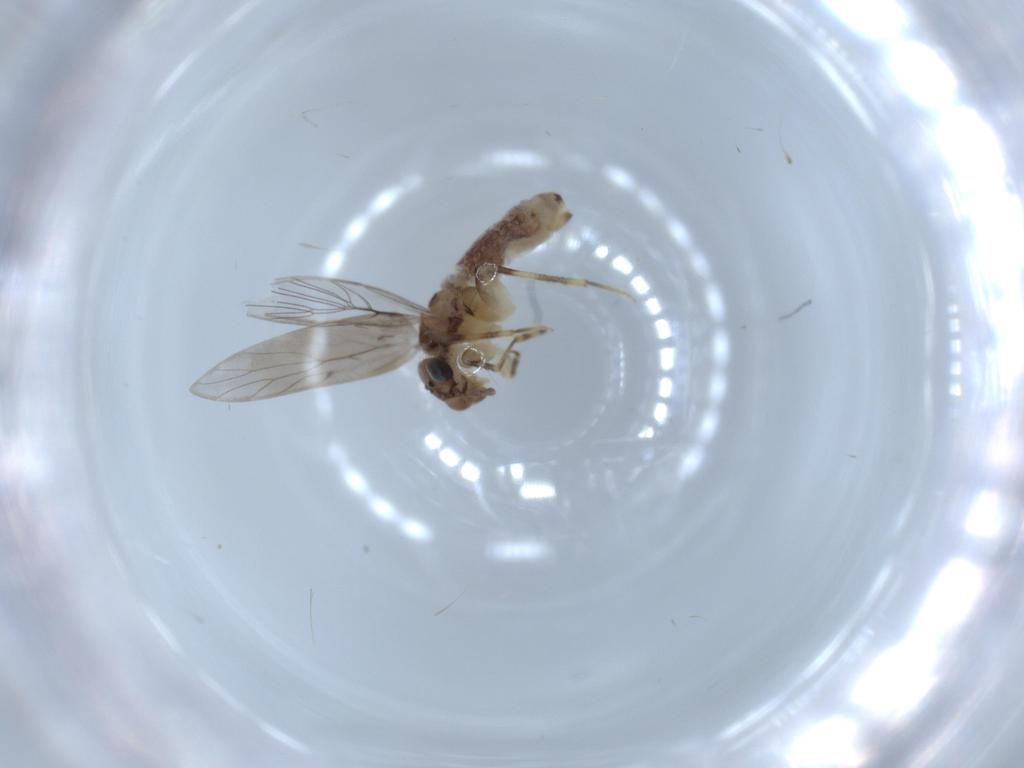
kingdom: Animalia
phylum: Arthropoda
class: Insecta
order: Psocodea
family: Lepidopsocidae
